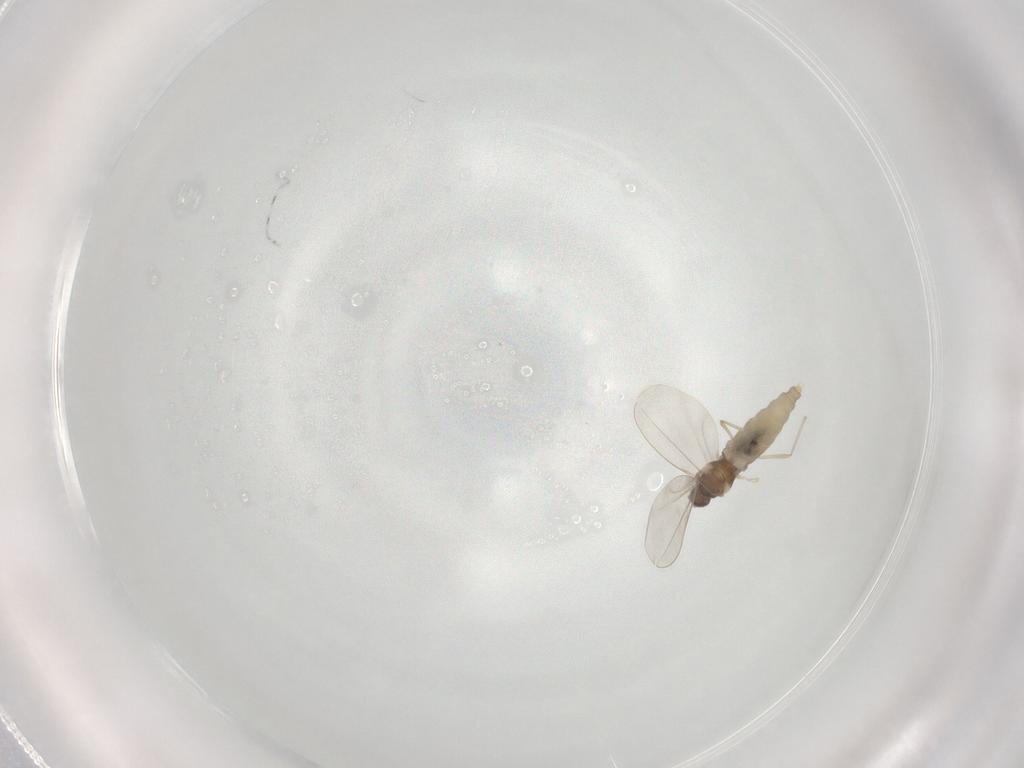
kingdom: Animalia
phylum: Arthropoda
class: Insecta
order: Diptera
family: Cecidomyiidae
